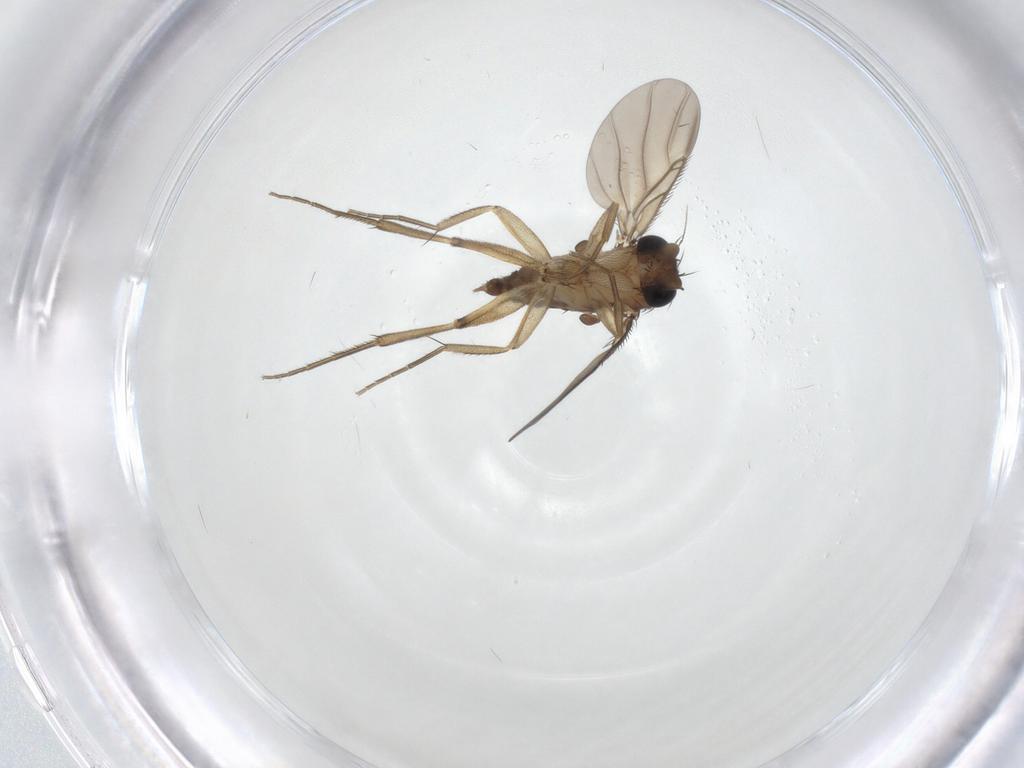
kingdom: Animalia
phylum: Arthropoda
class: Insecta
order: Diptera
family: Phoridae
